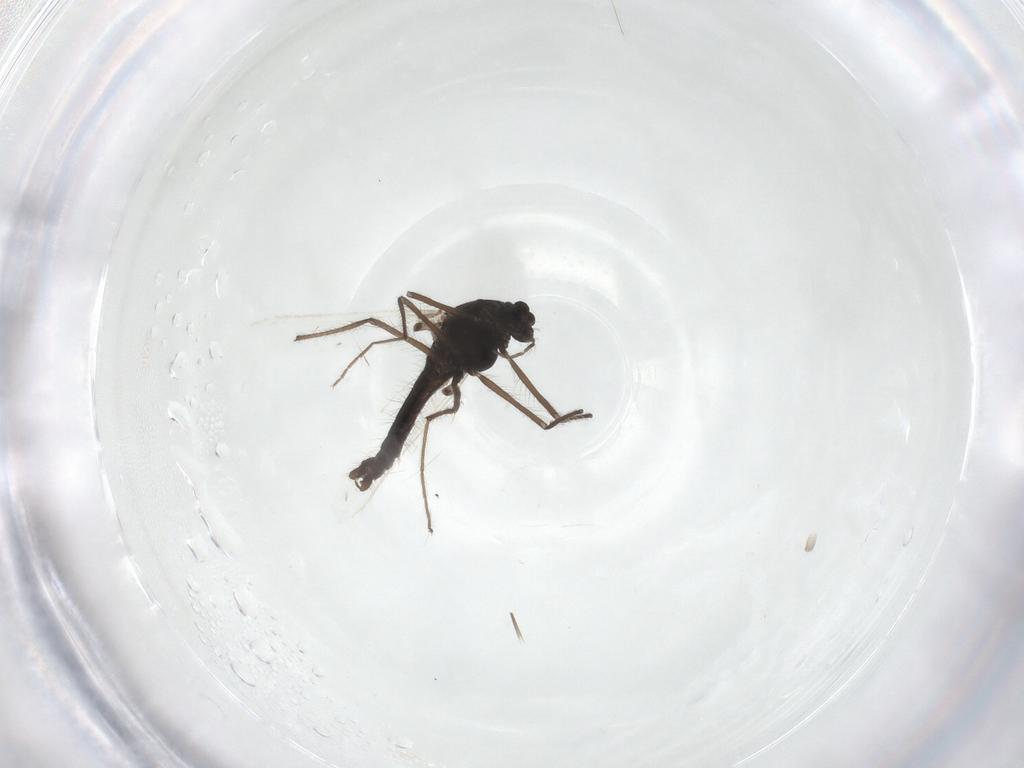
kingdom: Animalia
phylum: Arthropoda
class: Insecta
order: Diptera
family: Chironomidae
